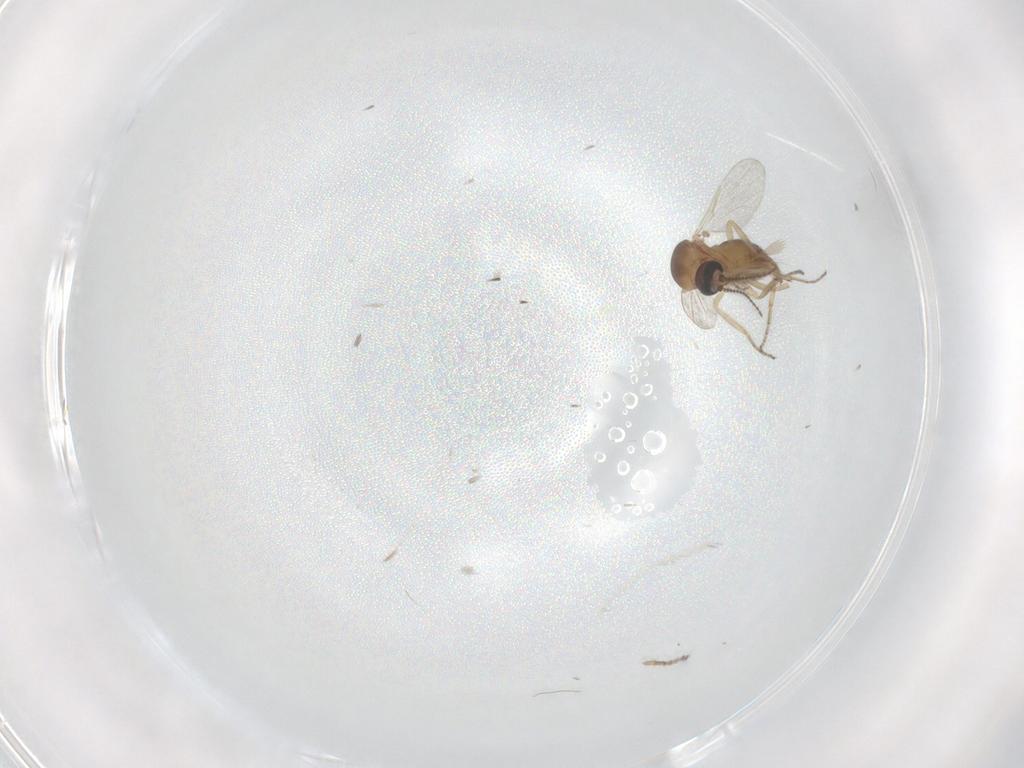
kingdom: Animalia
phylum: Arthropoda
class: Insecta
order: Diptera
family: Ceratopogonidae
